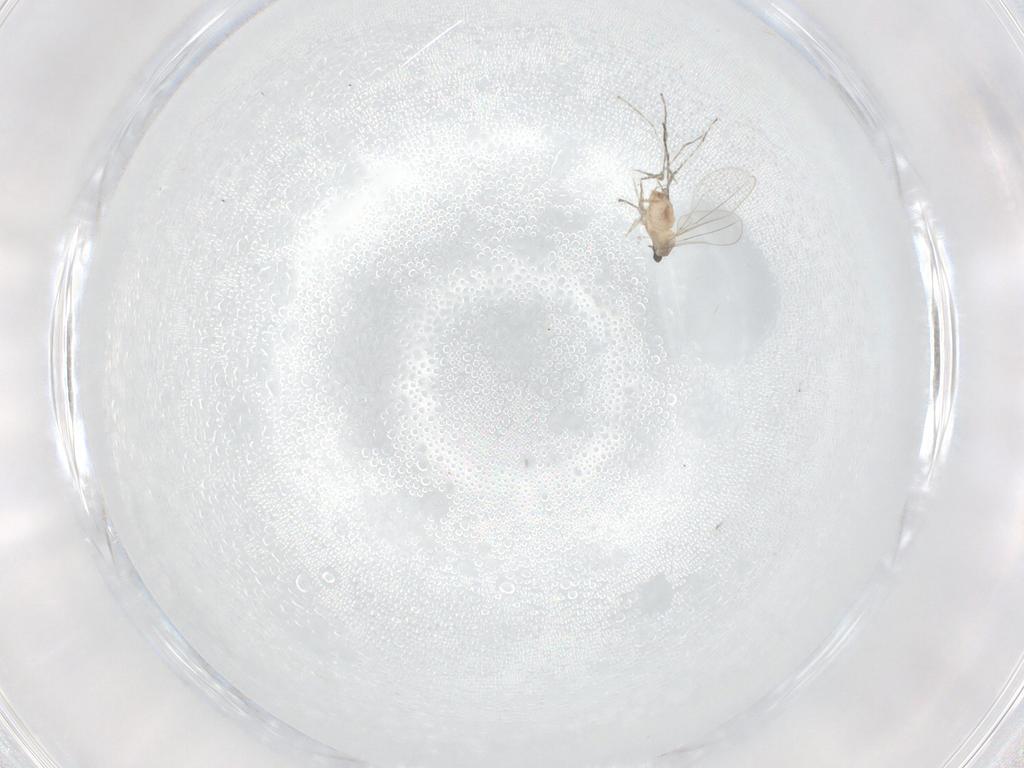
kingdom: Animalia
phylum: Arthropoda
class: Insecta
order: Diptera
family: Cecidomyiidae
